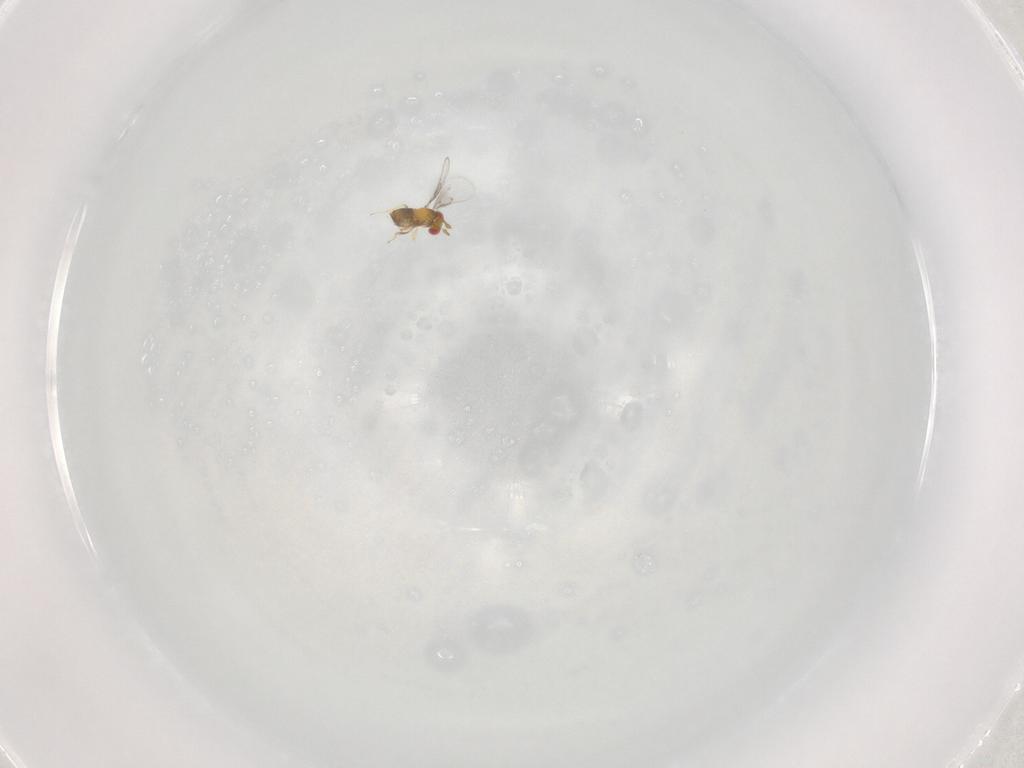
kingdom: Animalia
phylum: Arthropoda
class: Insecta
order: Hymenoptera
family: Trichogrammatidae
